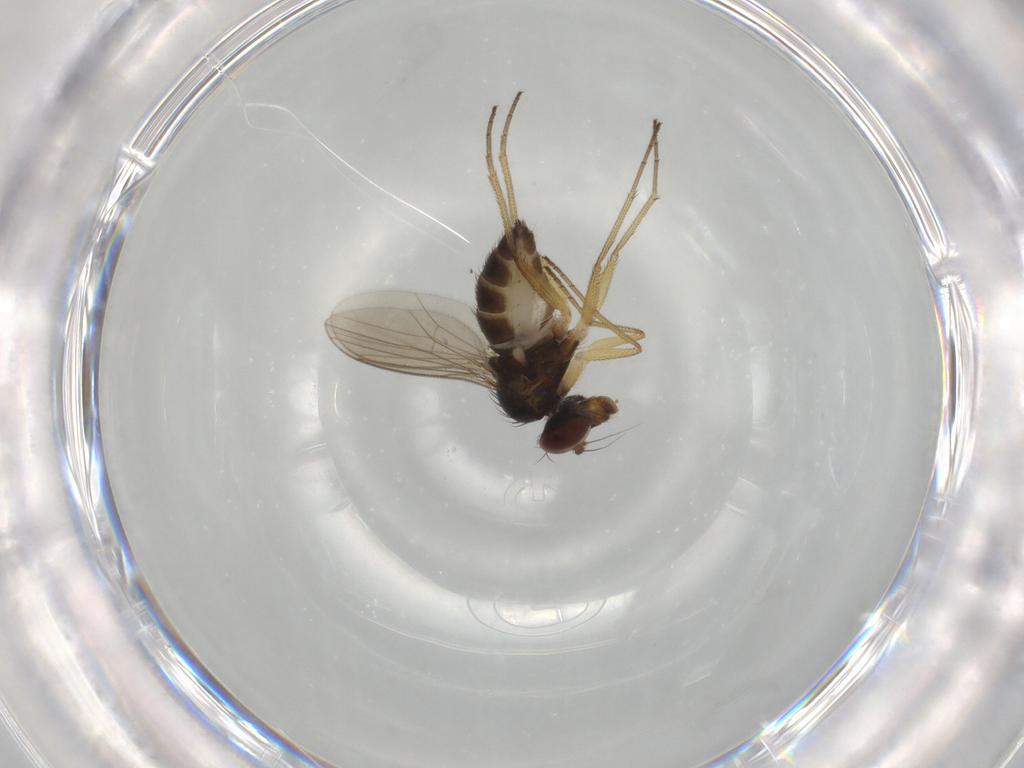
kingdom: Animalia
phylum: Arthropoda
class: Insecta
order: Diptera
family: Dolichopodidae
